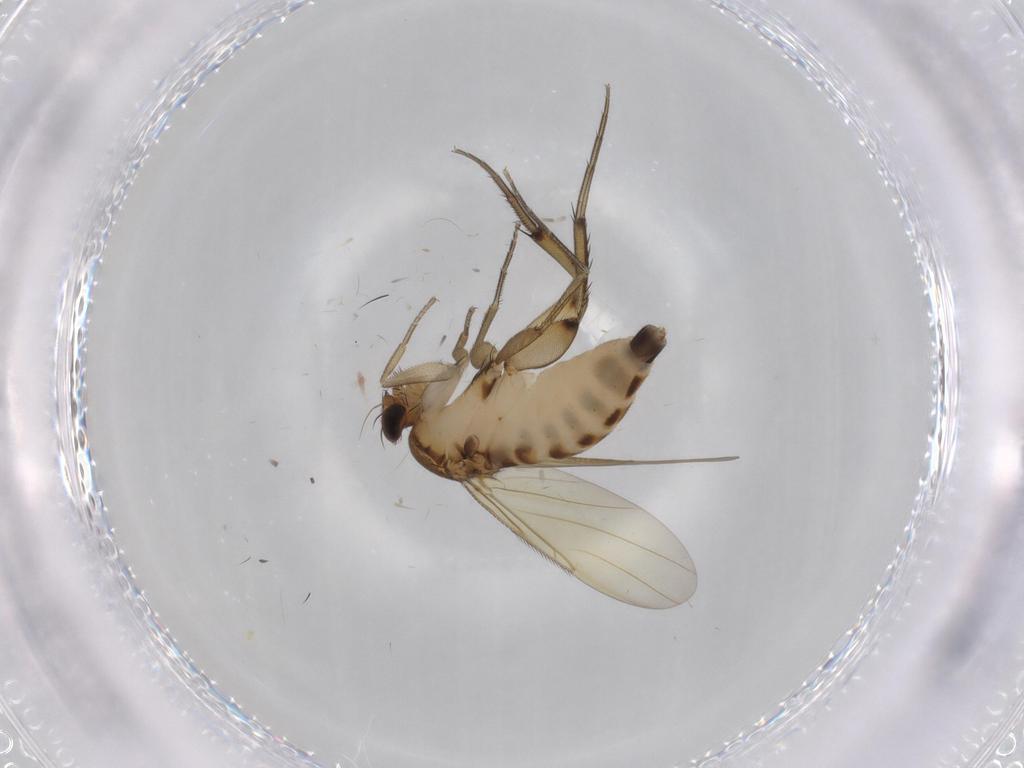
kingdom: Animalia
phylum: Arthropoda
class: Insecta
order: Diptera
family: Phoridae
